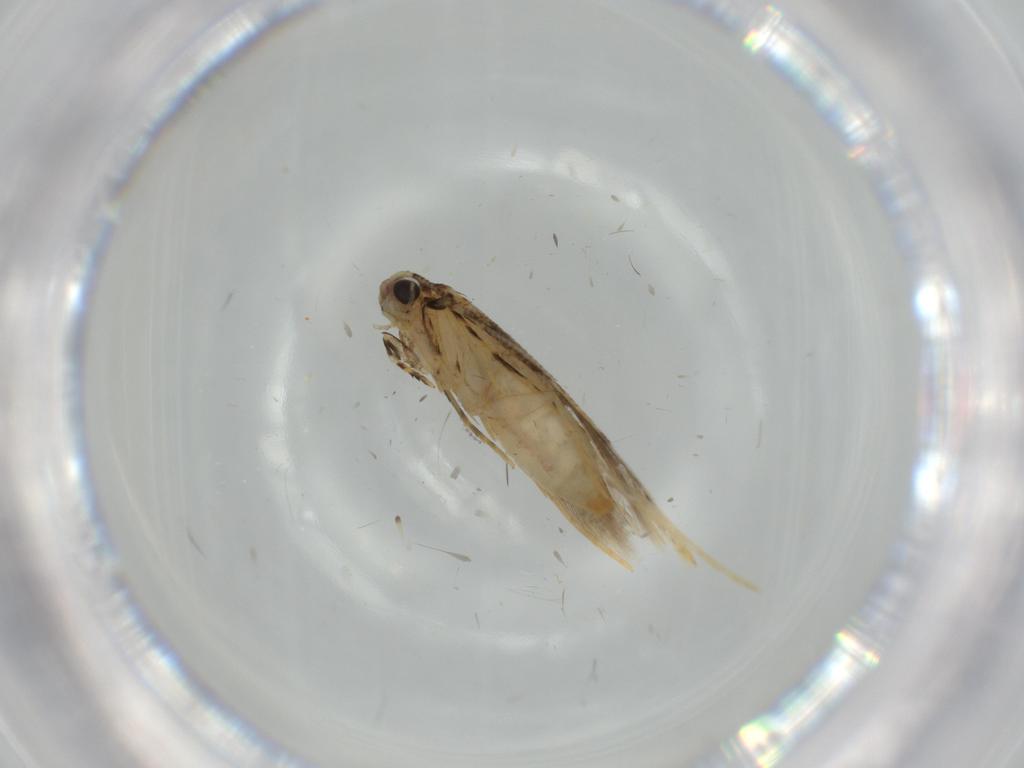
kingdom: Animalia
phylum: Arthropoda
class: Insecta
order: Lepidoptera
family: Tineidae
